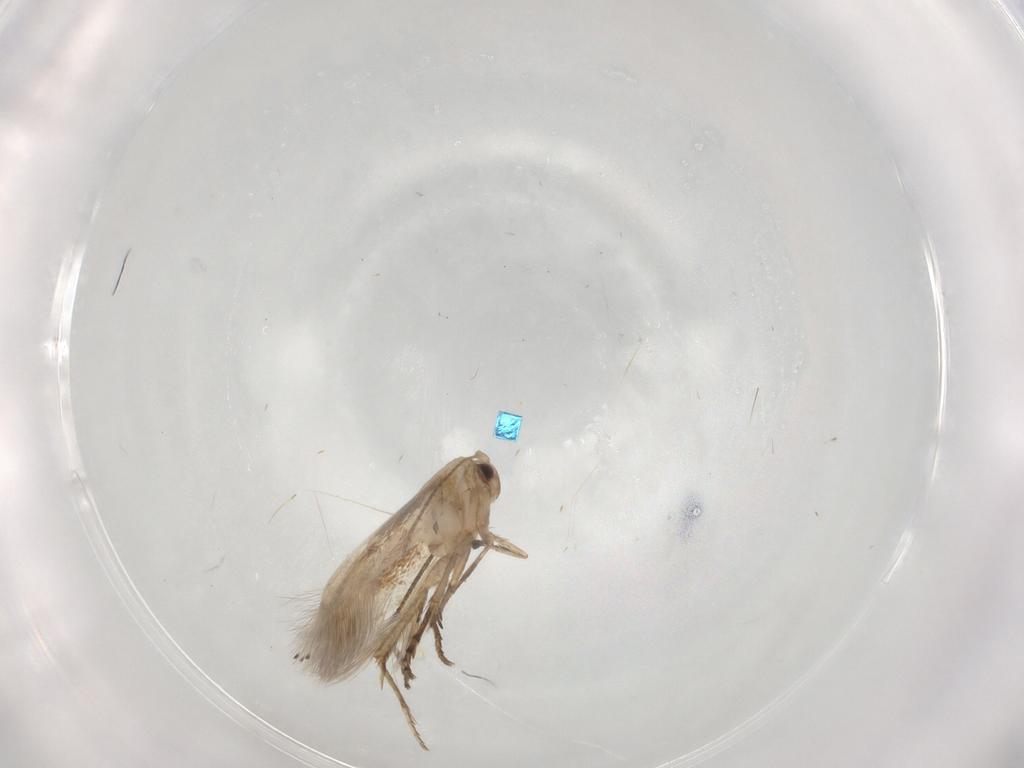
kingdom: Animalia
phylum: Arthropoda
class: Insecta
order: Lepidoptera
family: Bucculatricidae
